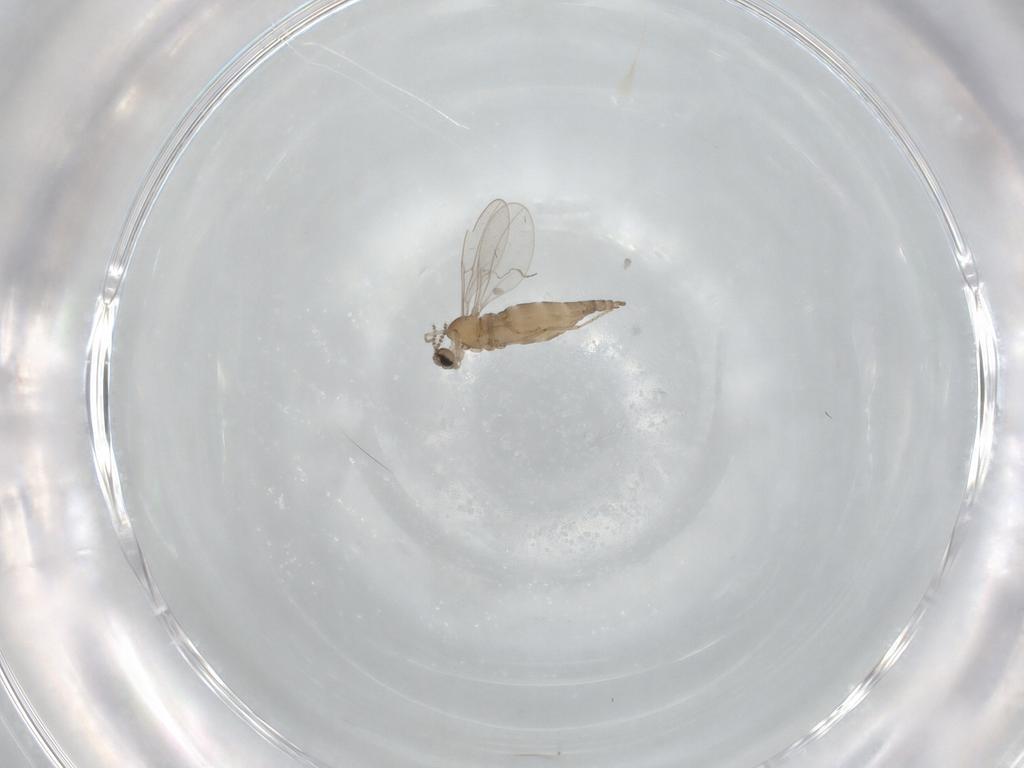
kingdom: Animalia
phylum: Arthropoda
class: Insecta
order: Diptera
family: Cecidomyiidae
